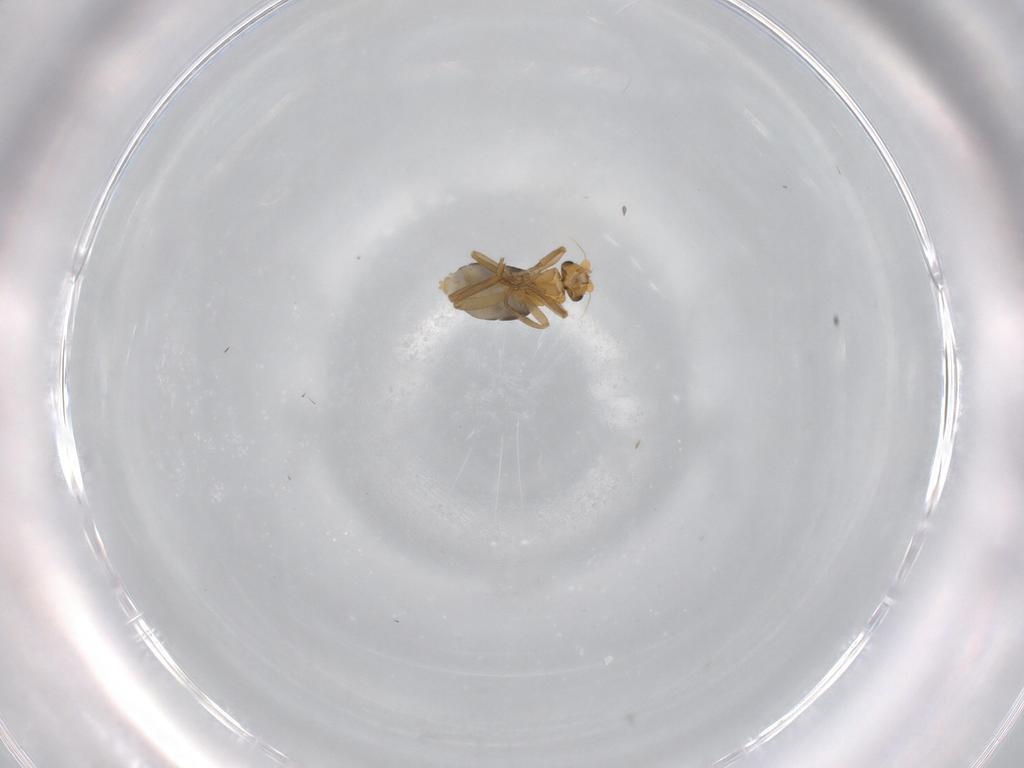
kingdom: Animalia
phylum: Arthropoda
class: Insecta
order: Diptera
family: Phoridae
